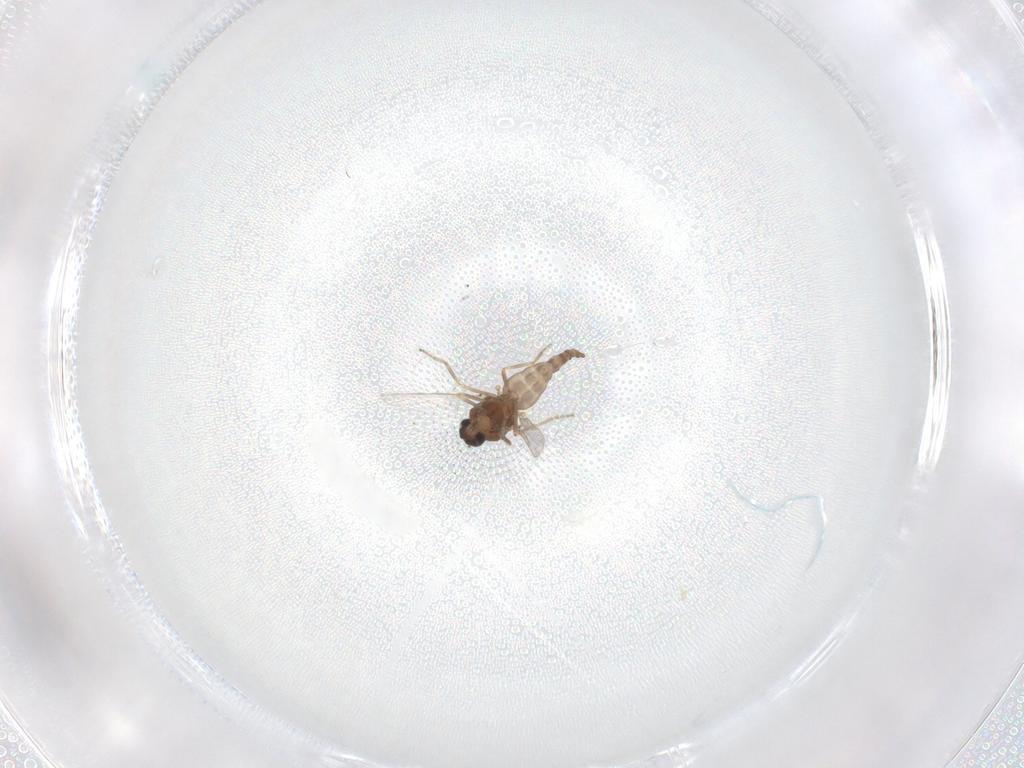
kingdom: Animalia
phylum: Arthropoda
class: Insecta
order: Diptera
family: Ceratopogonidae
